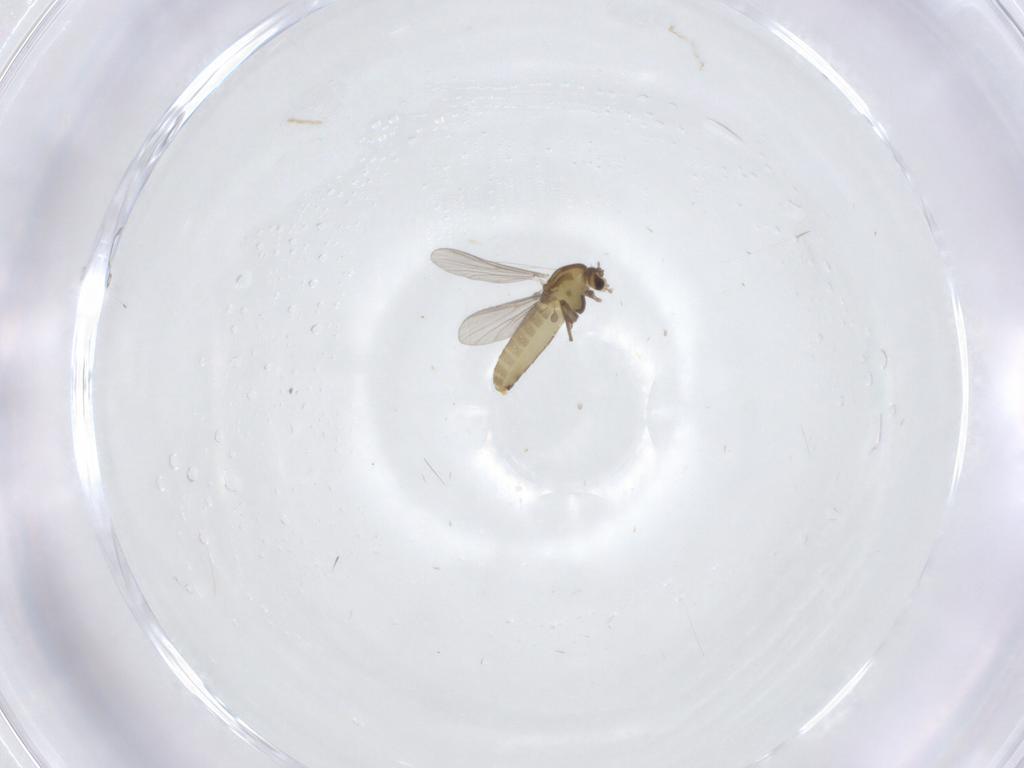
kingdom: Animalia
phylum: Arthropoda
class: Insecta
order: Diptera
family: Chironomidae
